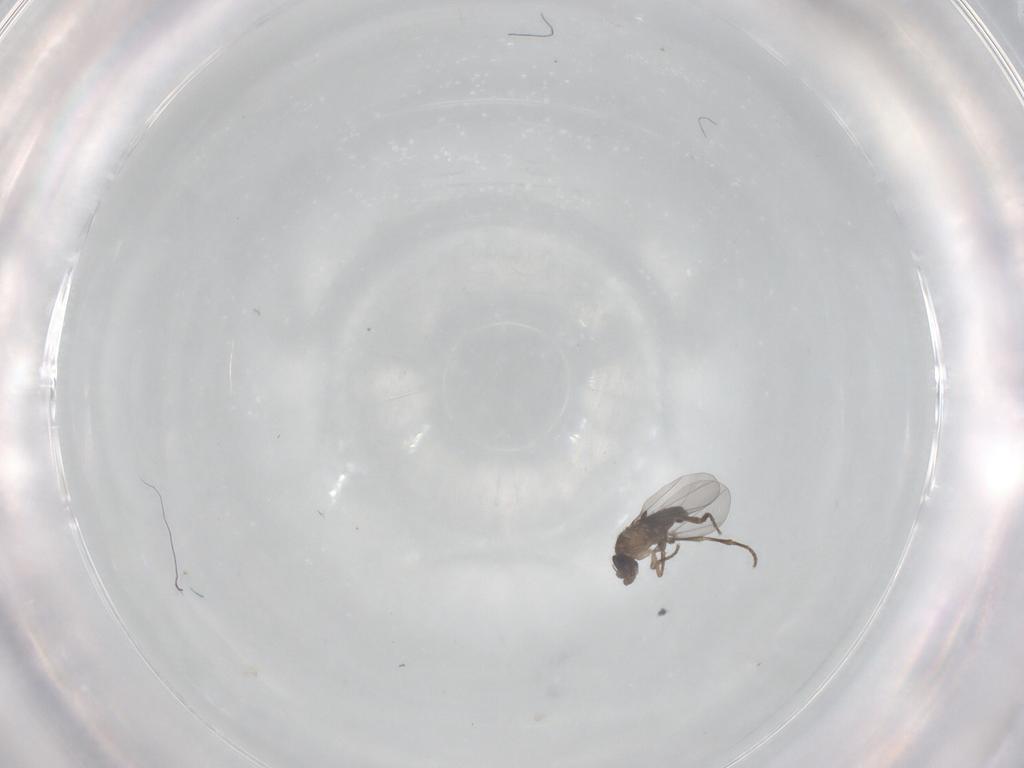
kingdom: Animalia
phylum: Arthropoda
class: Insecta
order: Diptera
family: Phoridae
